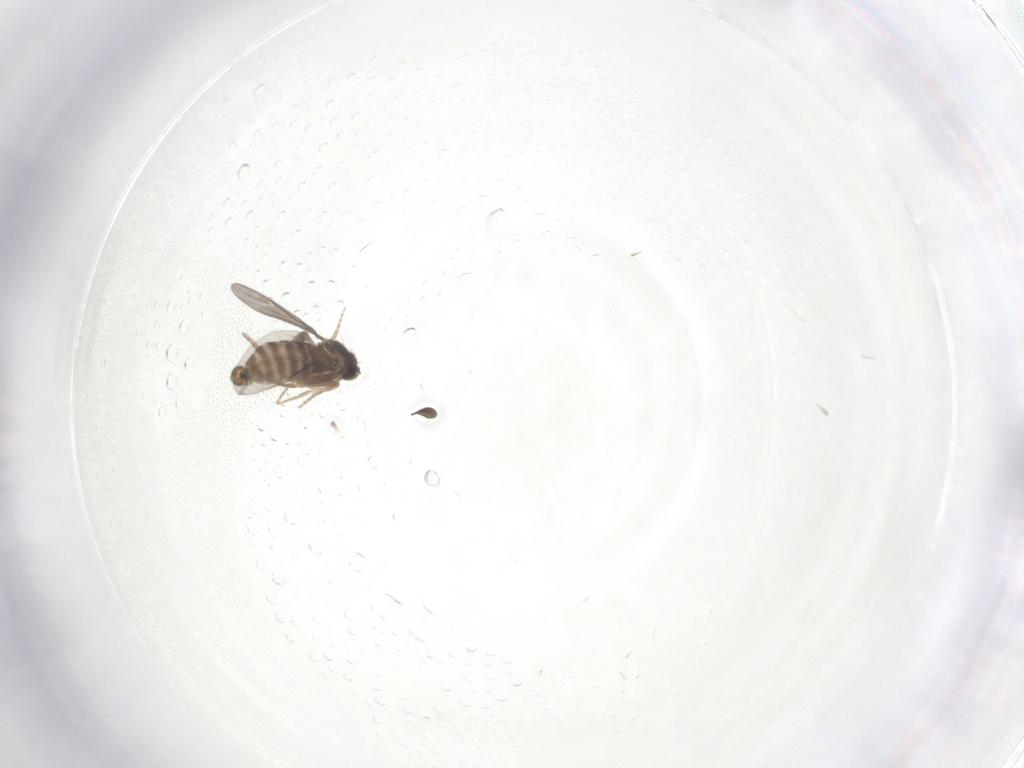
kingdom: Animalia
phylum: Arthropoda
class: Insecta
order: Diptera
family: Sciaridae
